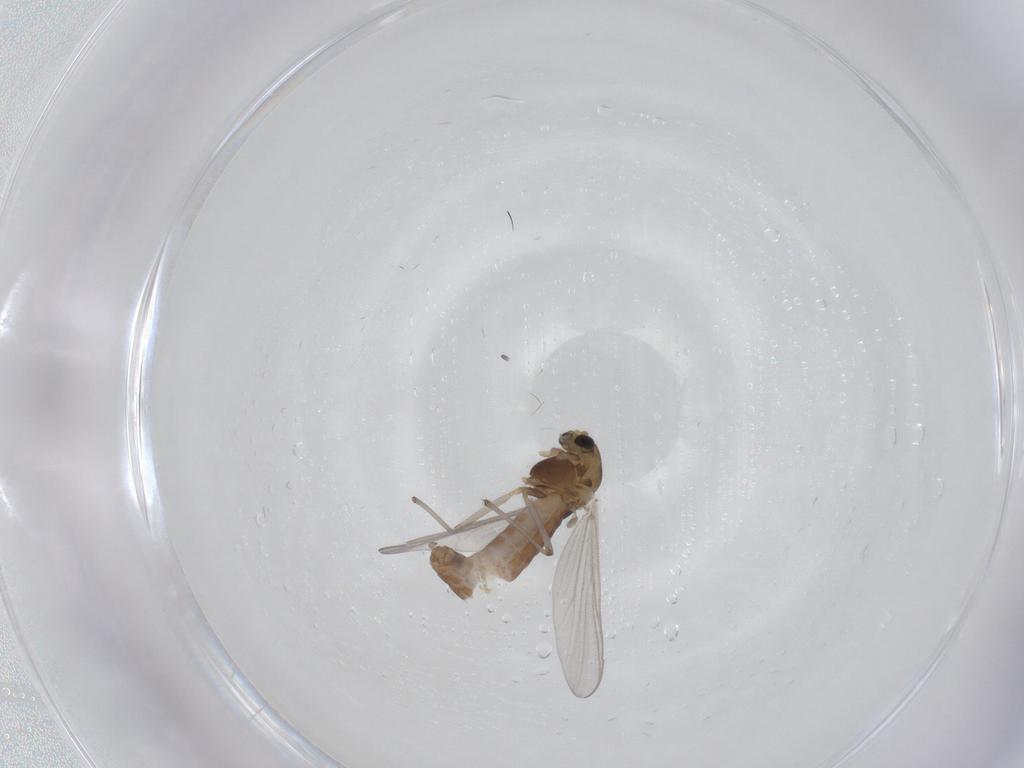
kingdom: Animalia
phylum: Arthropoda
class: Insecta
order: Diptera
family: Chironomidae
